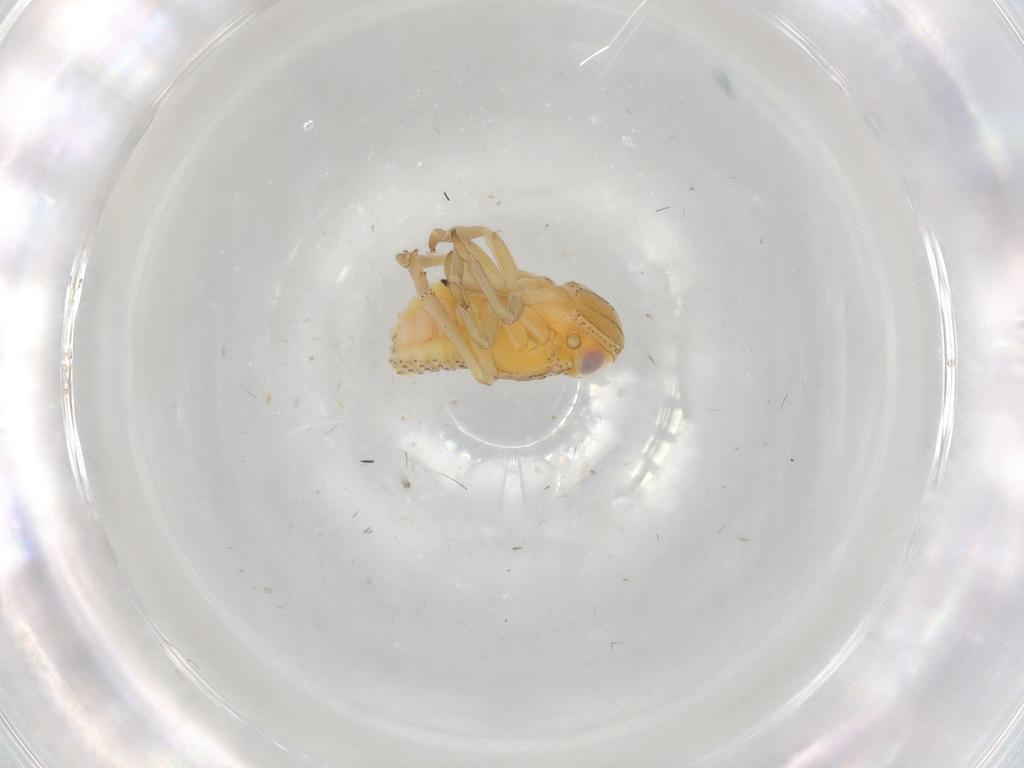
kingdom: Animalia
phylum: Arthropoda
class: Insecta
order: Hemiptera
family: Tropiduchidae
